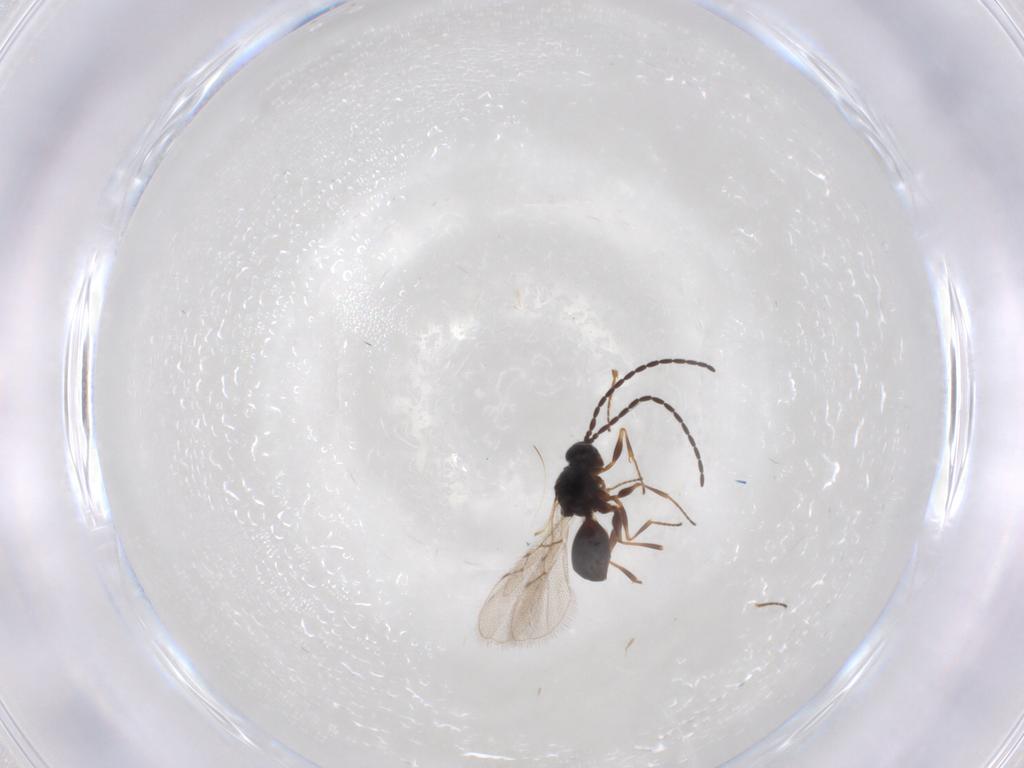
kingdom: Animalia
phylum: Arthropoda
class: Insecta
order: Hymenoptera
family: Figitidae
